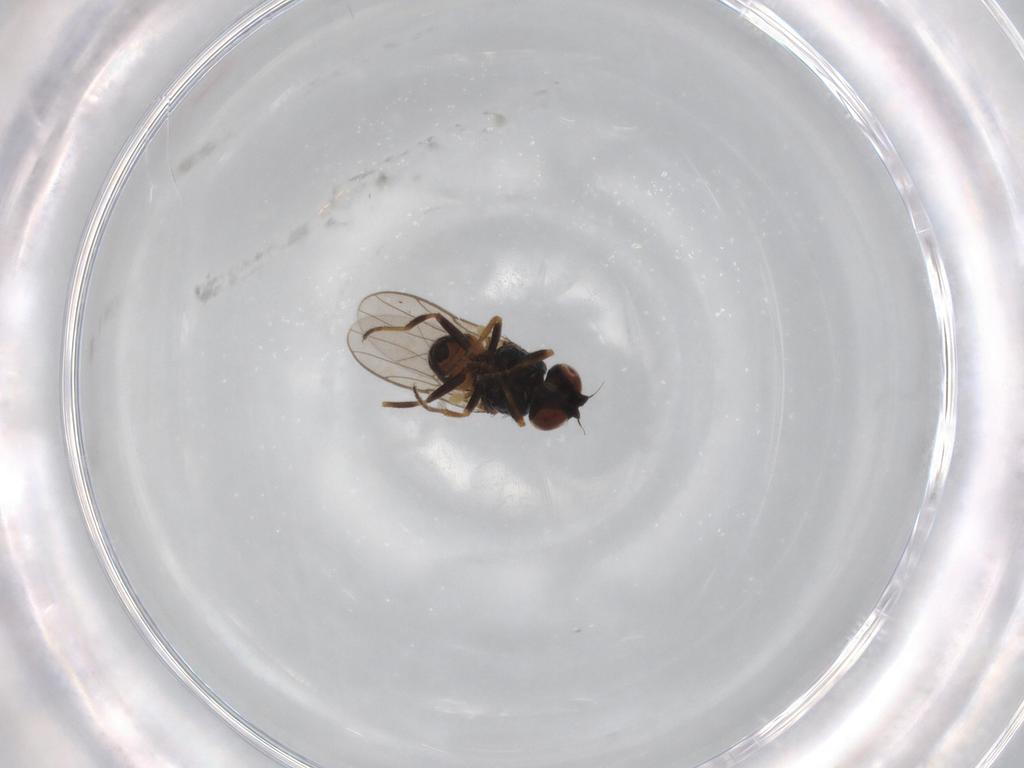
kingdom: Animalia
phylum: Arthropoda
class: Insecta
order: Diptera
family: Chloropidae
